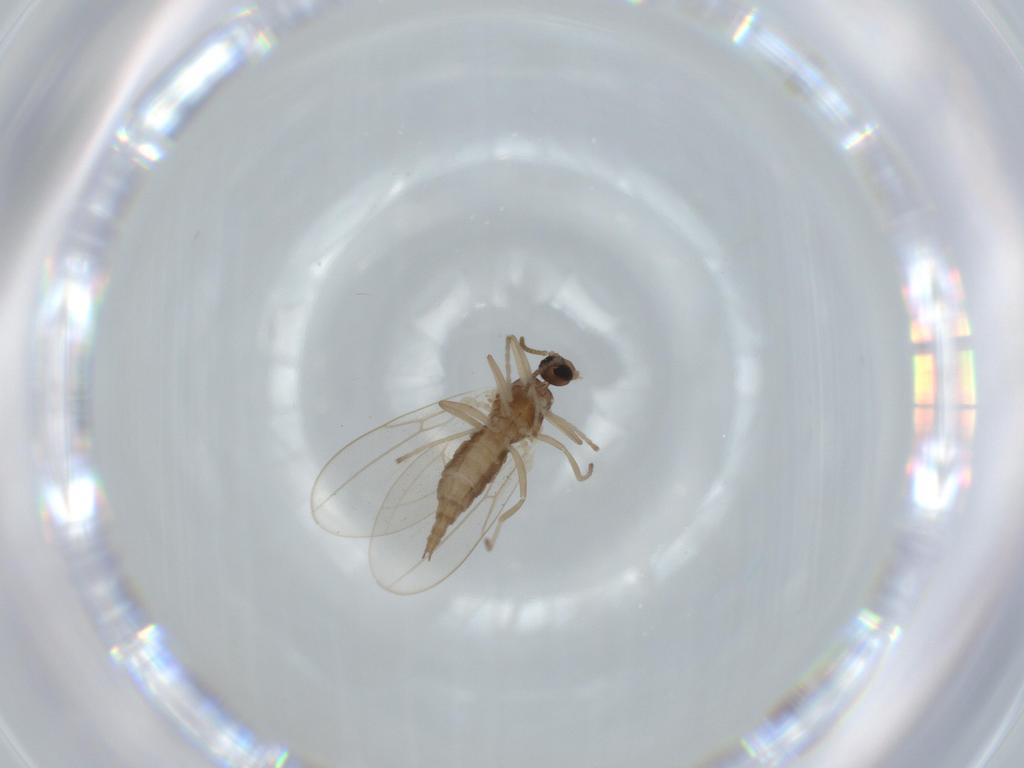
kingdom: Animalia
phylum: Arthropoda
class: Insecta
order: Diptera
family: Cecidomyiidae
